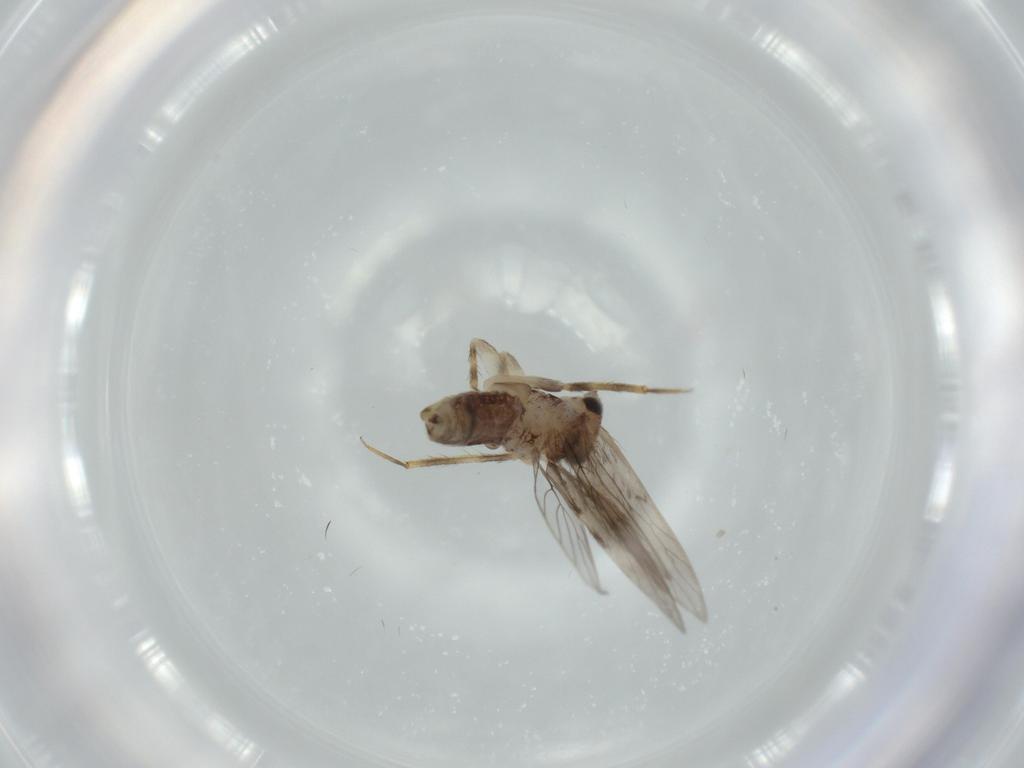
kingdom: Animalia
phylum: Arthropoda
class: Insecta
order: Psocodea
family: Lepidopsocidae
